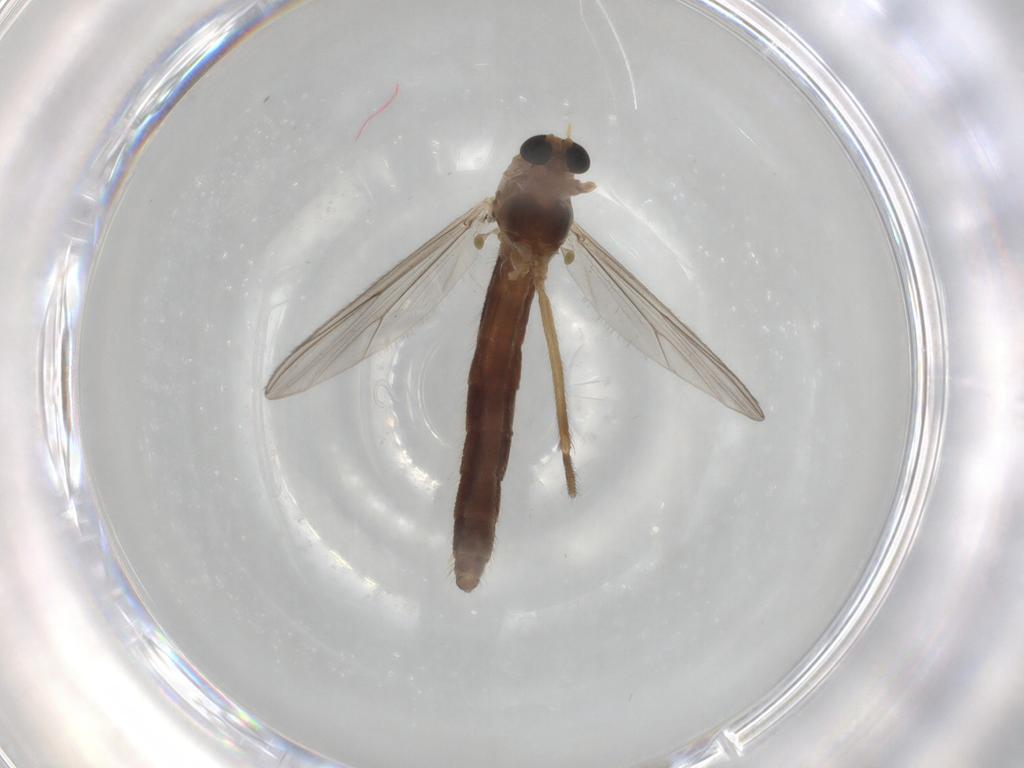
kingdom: Animalia
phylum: Arthropoda
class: Insecta
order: Diptera
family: Chironomidae
